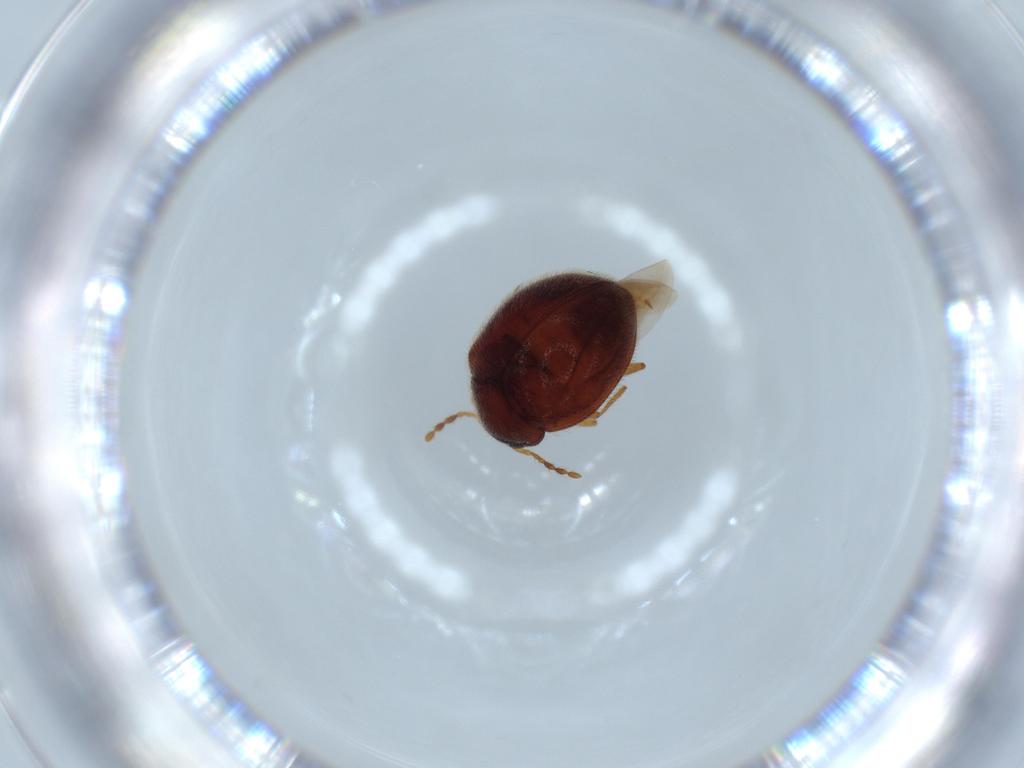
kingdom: Animalia
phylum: Arthropoda
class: Insecta
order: Coleoptera
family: Anamorphidae
